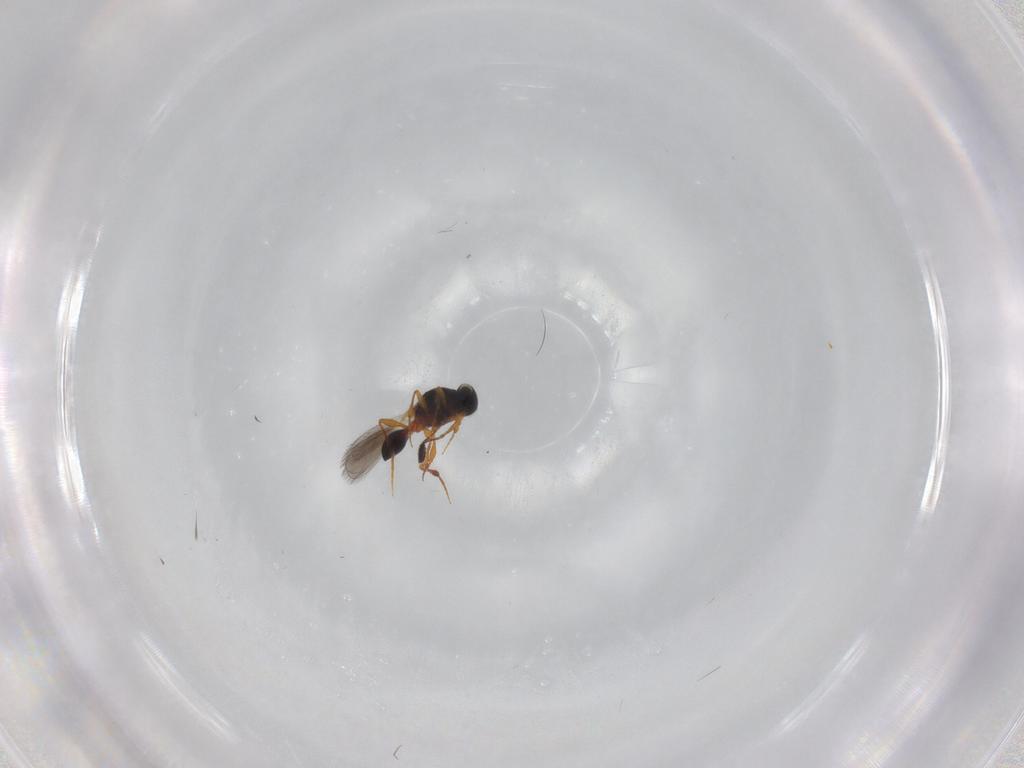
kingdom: Animalia
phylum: Arthropoda
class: Insecta
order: Hymenoptera
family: Platygastridae
